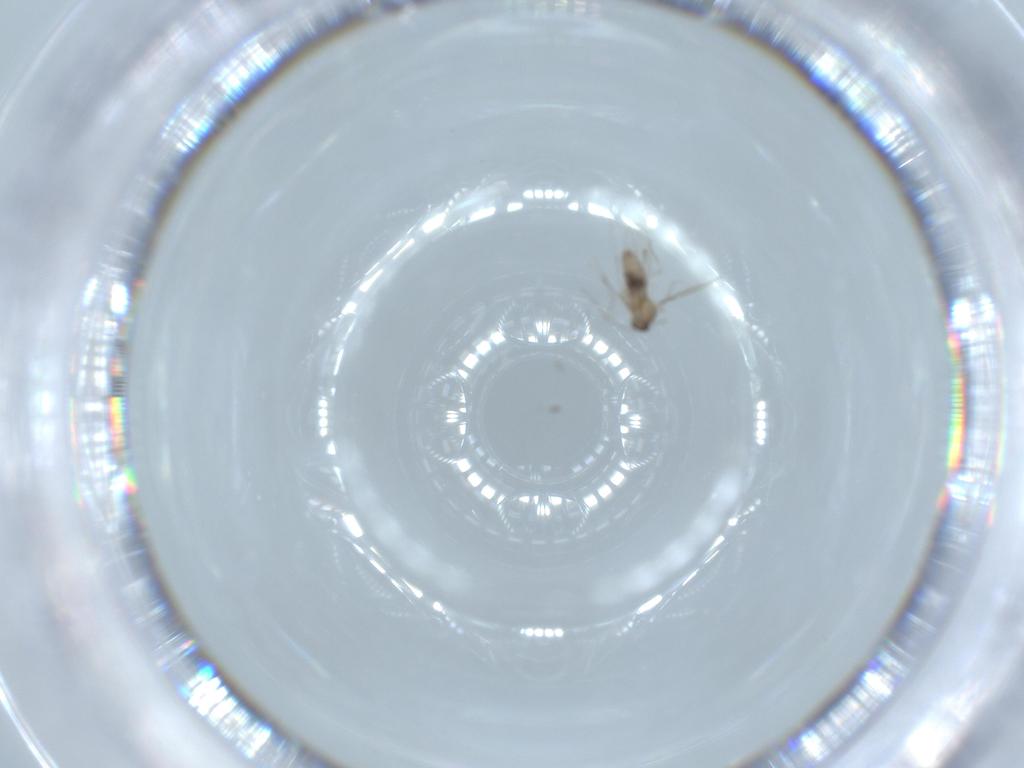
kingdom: Animalia
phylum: Arthropoda
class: Insecta
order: Diptera
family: Cecidomyiidae
